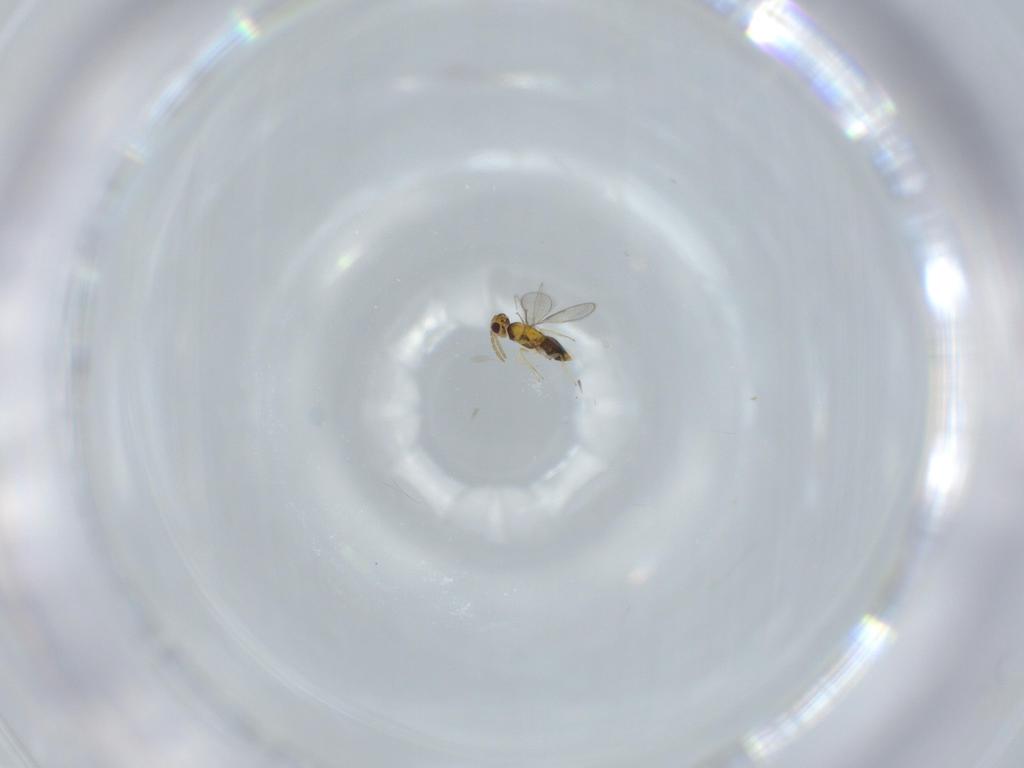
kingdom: Animalia
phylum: Arthropoda
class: Insecta
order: Hymenoptera
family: Formicidae
